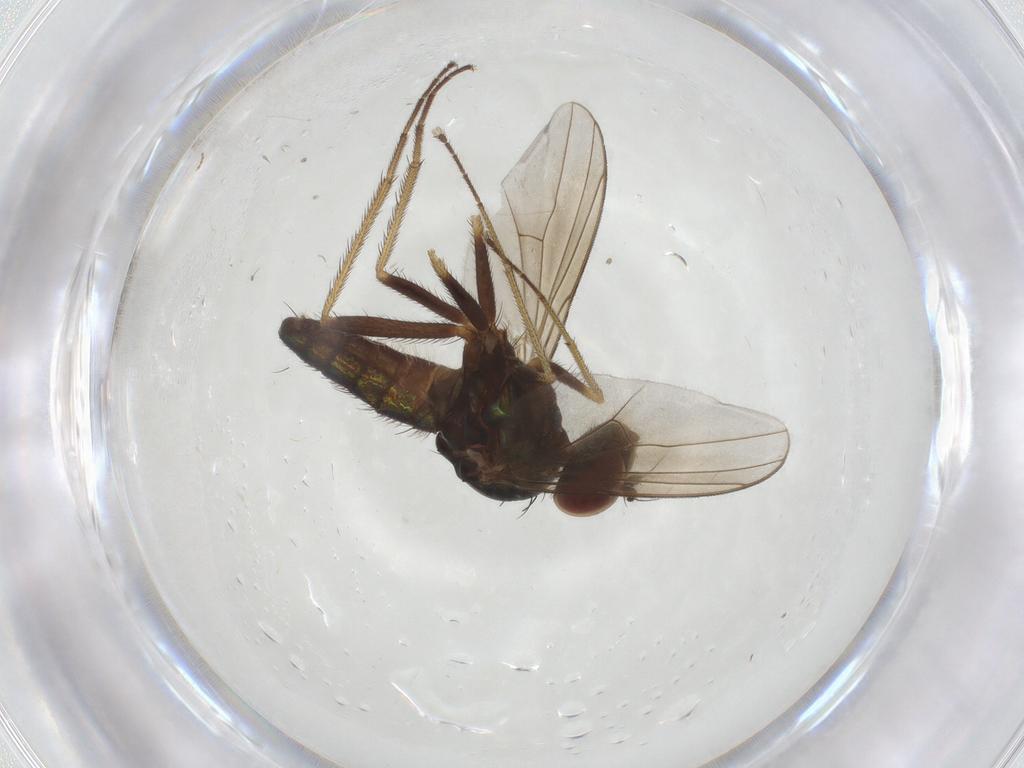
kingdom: Animalia
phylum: Arthropoda
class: Insecta
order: Diptera
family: Dolichopodidae
